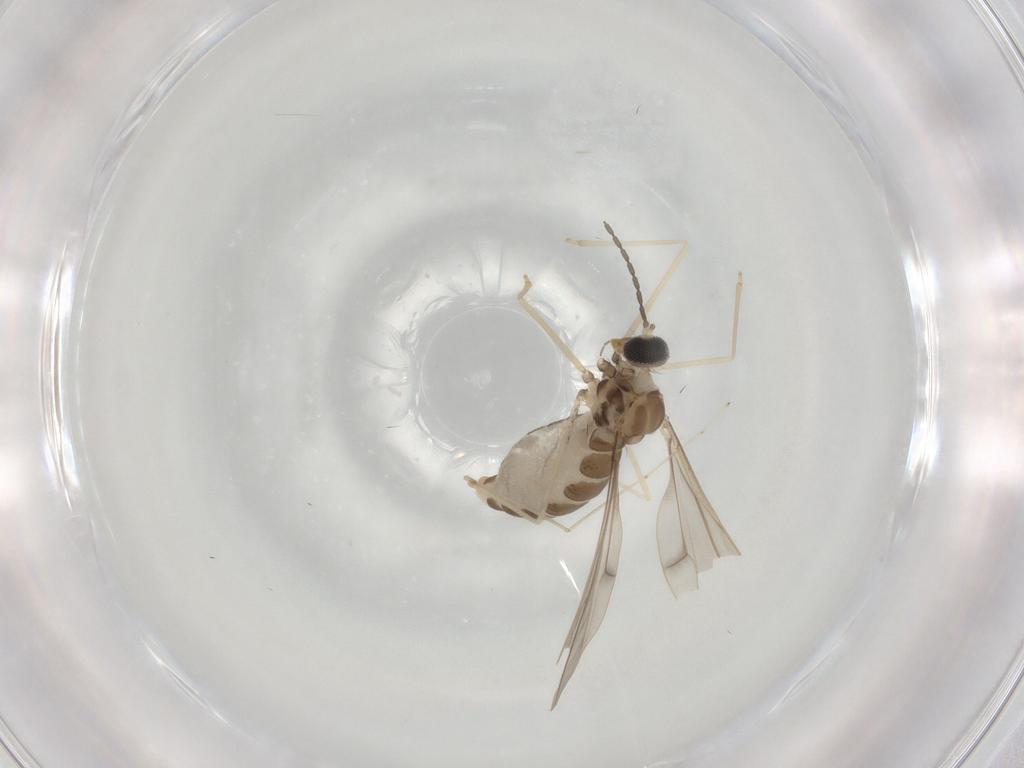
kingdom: Animalia
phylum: Arthropoda
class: Insecta
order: Diptera
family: Cecidomyiidae
